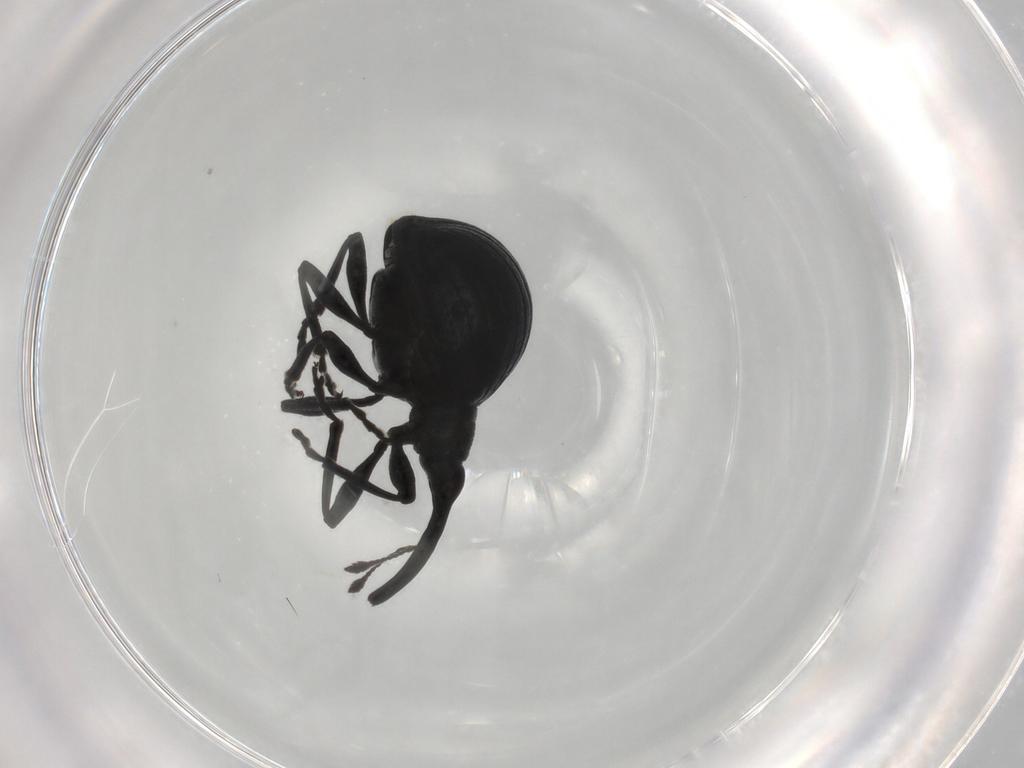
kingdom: Animalia
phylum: Arthropoda
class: Insecta
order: Coleoptera
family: Brentidae
